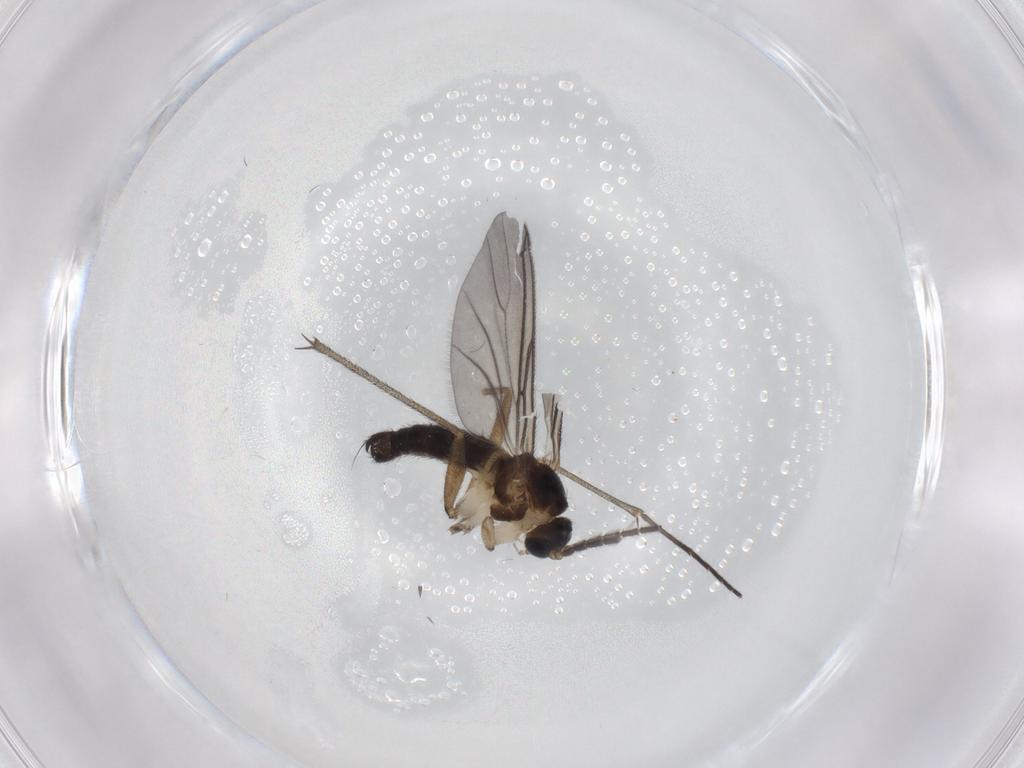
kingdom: Animalia
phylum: Arthropoda
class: Insecta
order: Diptera
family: Sciaridae
